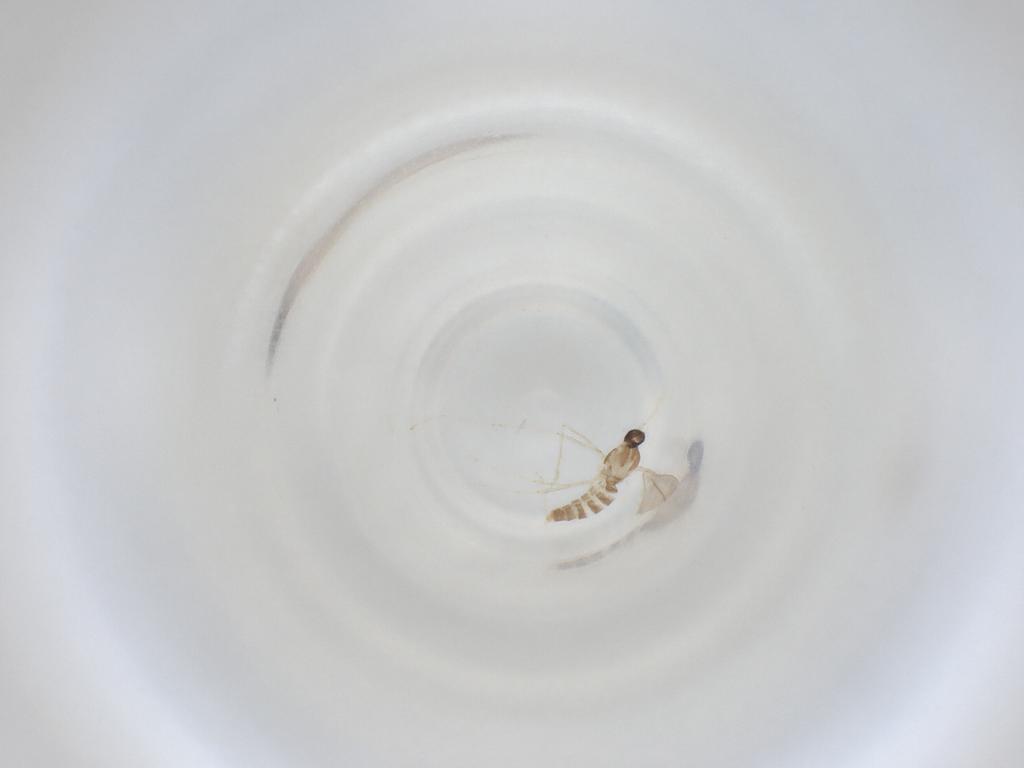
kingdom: Animalia
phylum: Arthropoda
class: Insecta
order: Diptera
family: Cecidomyiidae
